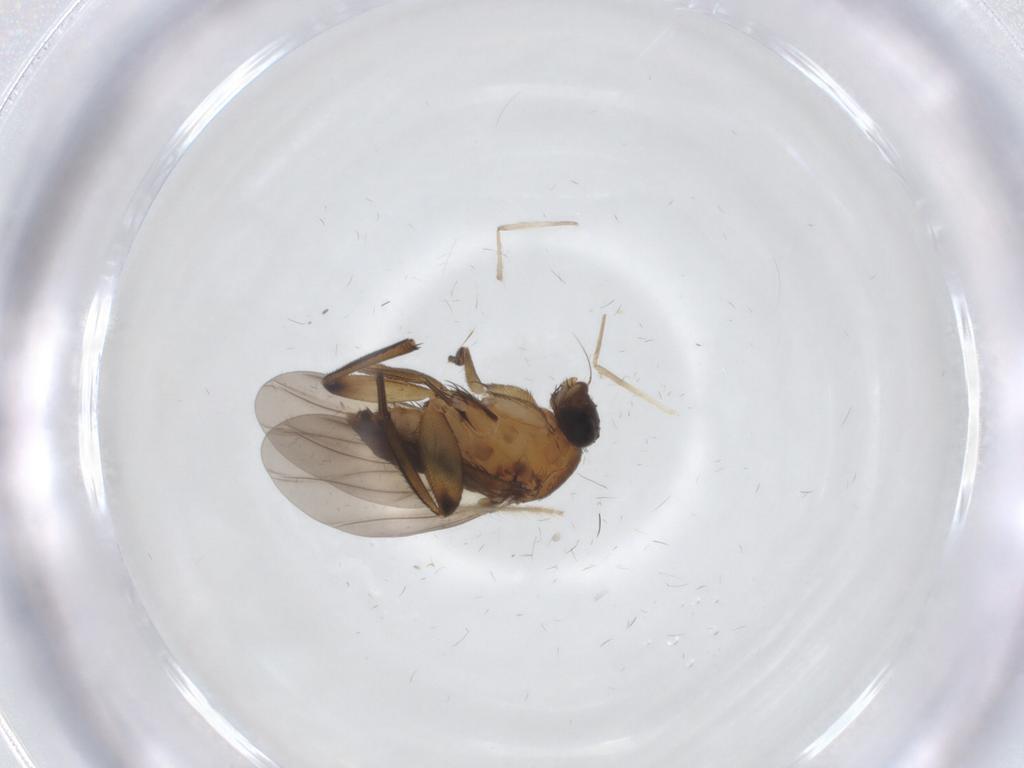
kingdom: Animalia
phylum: Arthropoda
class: Insecta
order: Diptera
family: Phoridae
